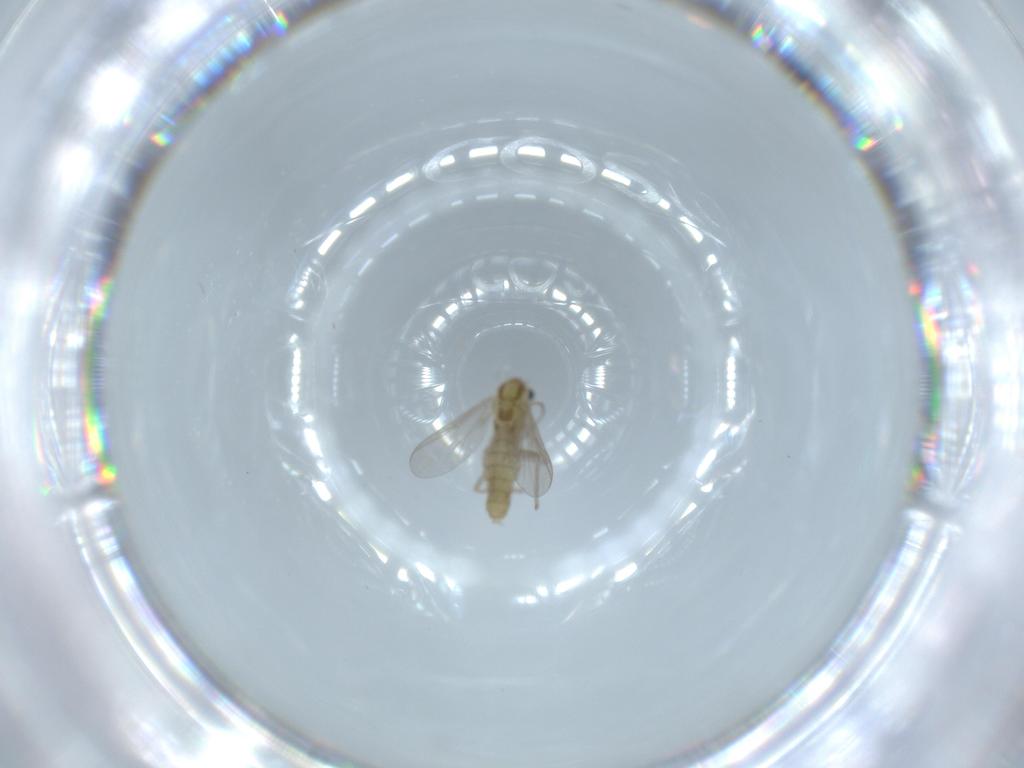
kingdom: Animalia
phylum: Arthropoda
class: Insecta
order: Diptera
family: Chironomidae
